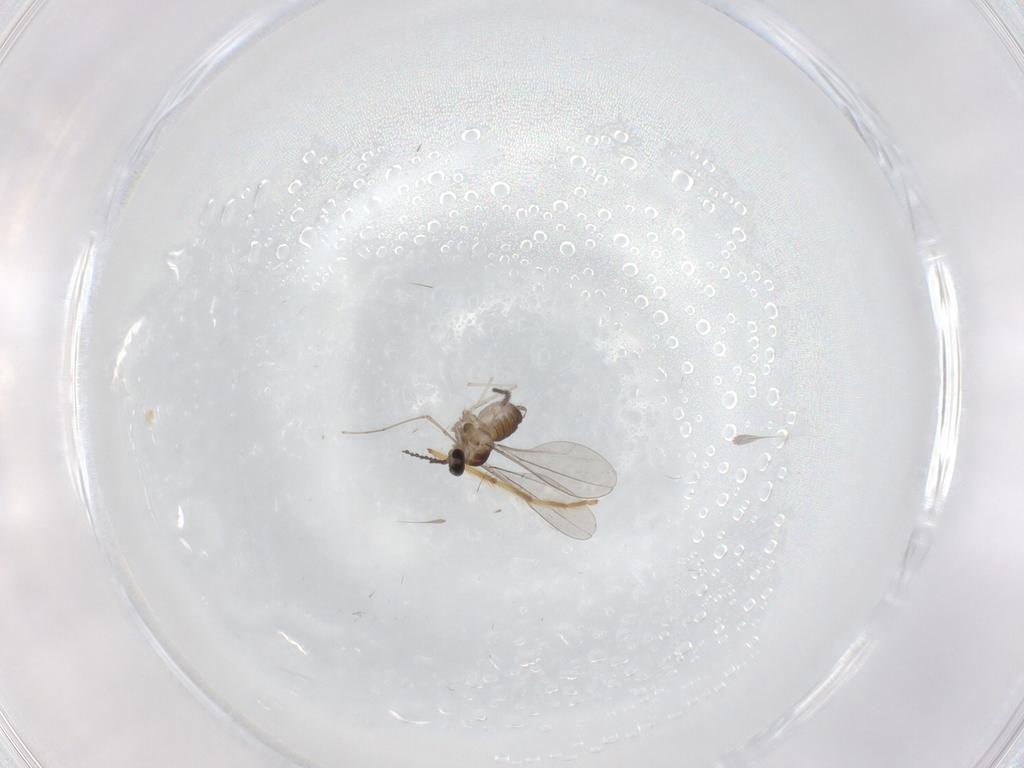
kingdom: Animalia
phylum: Arthropoda
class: Insecta
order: Diptera
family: Cecidomyiidae
